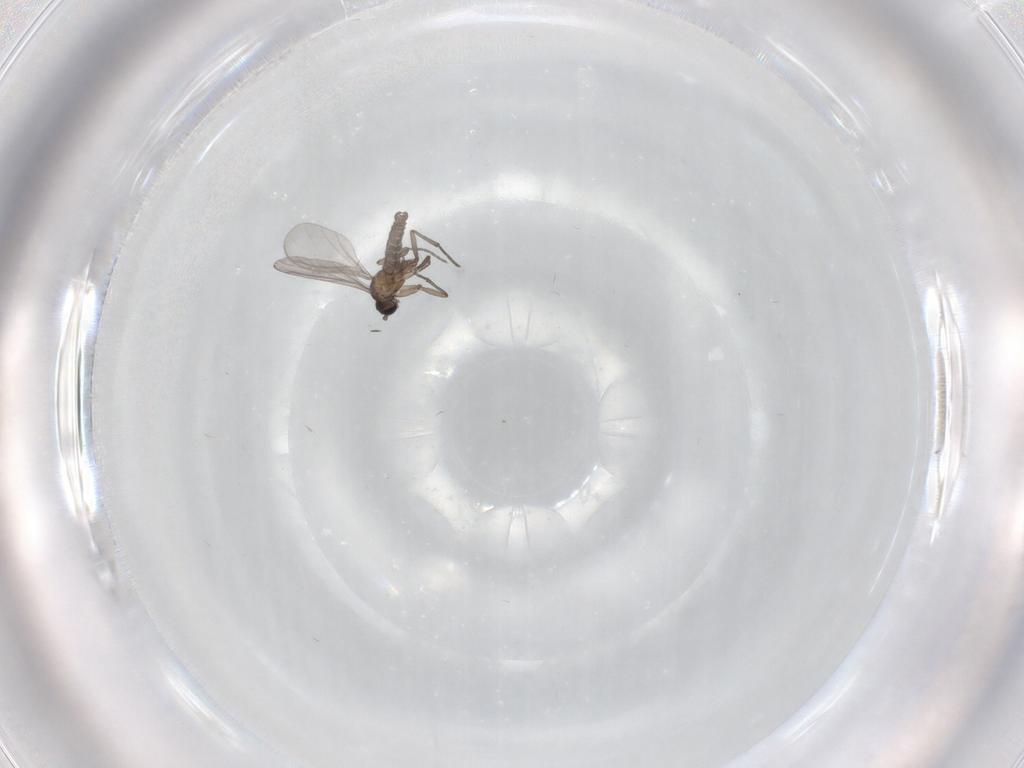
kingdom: Animalia
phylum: Arthropoda
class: Insecta
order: Diptera
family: Sciaridae
